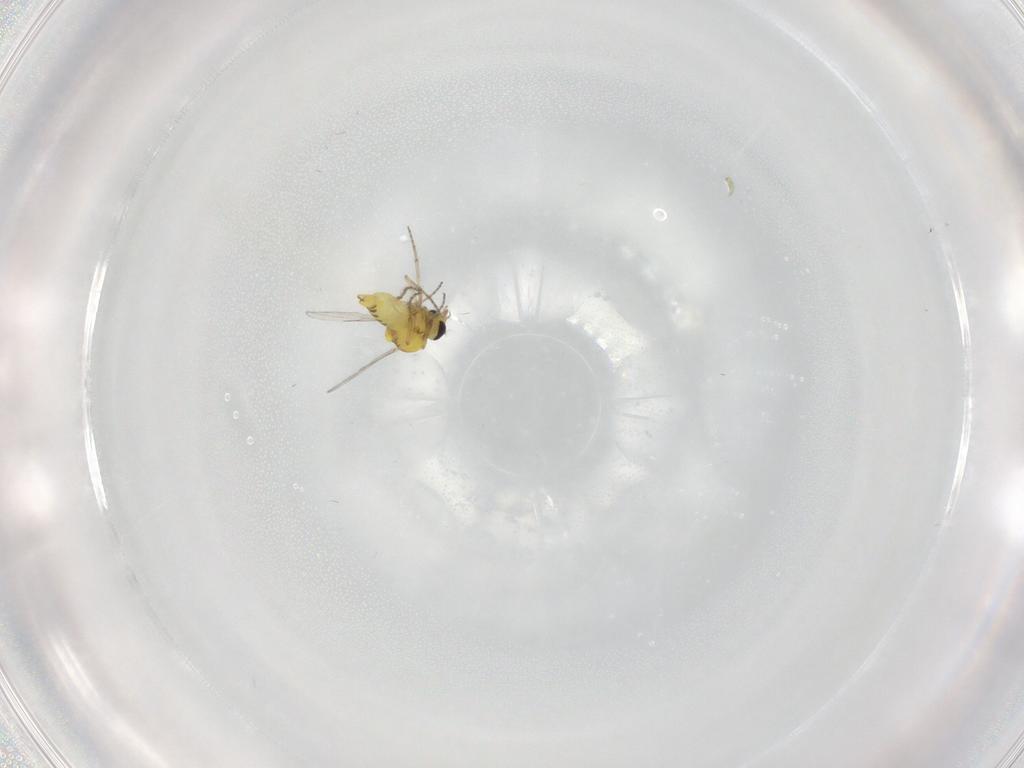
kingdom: Animalia
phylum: Arthropoda
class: Insecta
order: Diptera
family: Ceratopogonidae
